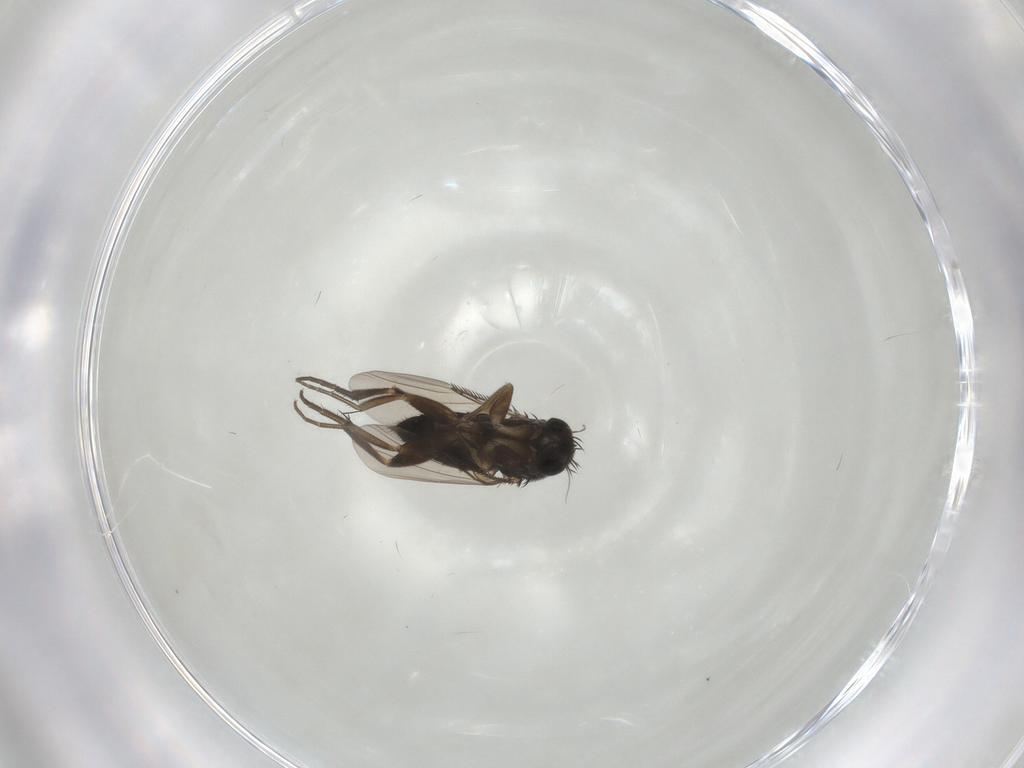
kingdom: Animalia
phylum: Arthropoda
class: Insecta
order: Diptera
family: Phoridae
